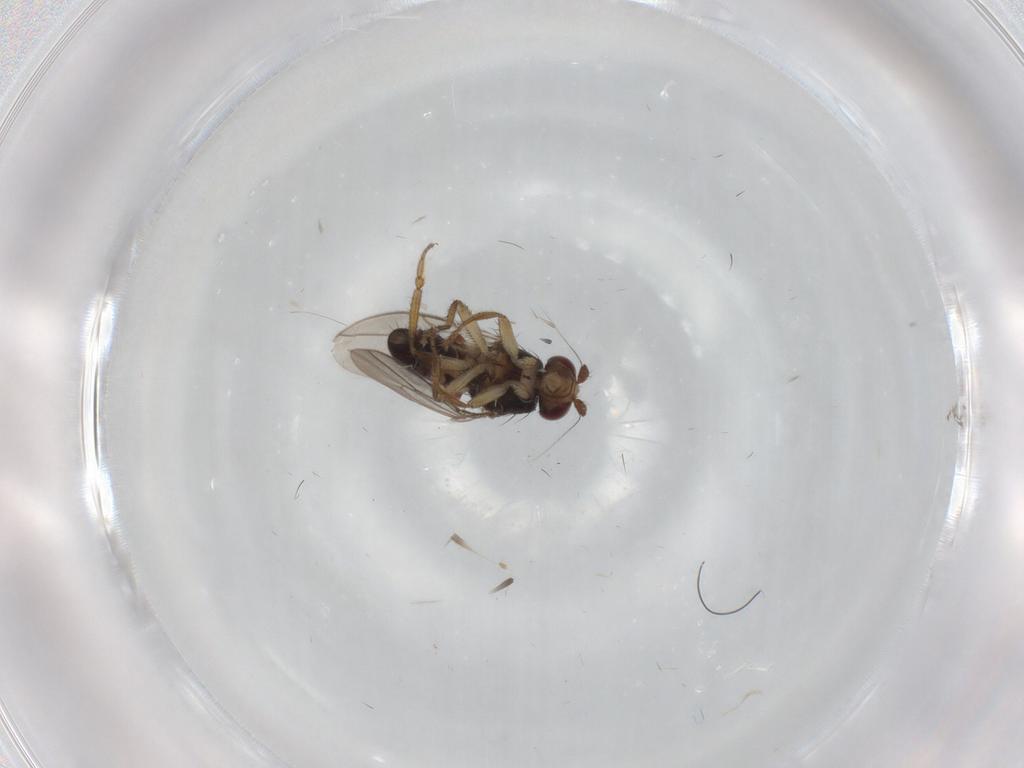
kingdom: Animalia
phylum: Arthropoda
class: Insecta
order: Diptera
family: Sphaeroceridae
